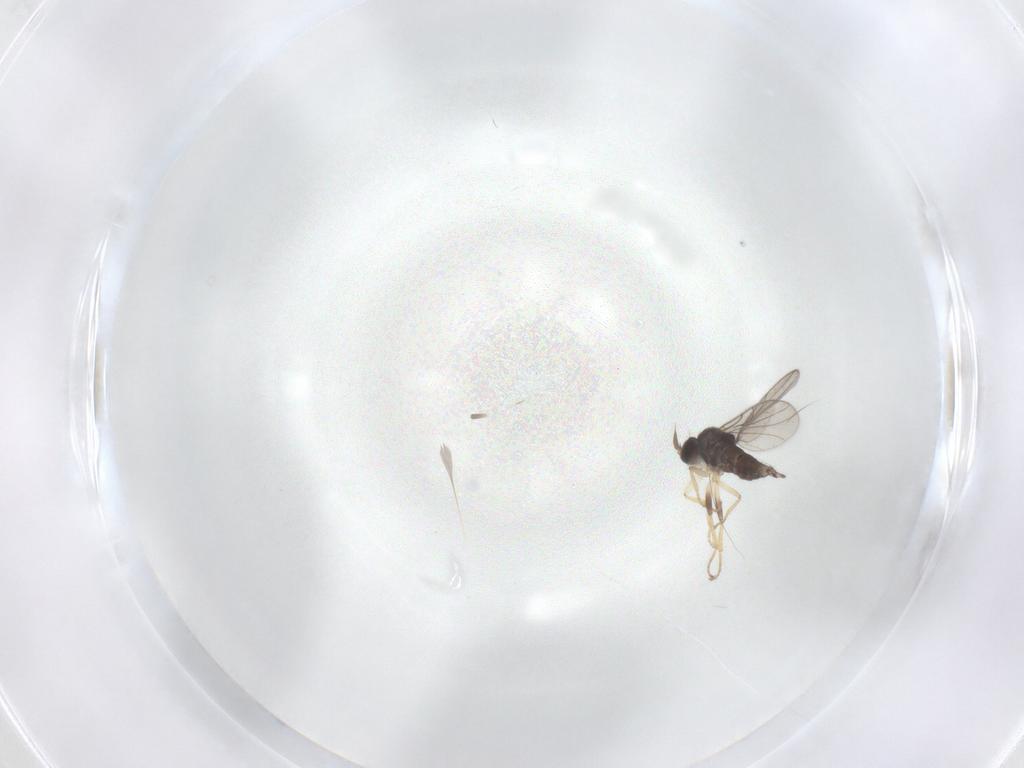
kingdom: Animalia
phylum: Arthropoda
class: Insecta
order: Diptera
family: Hybotidae
